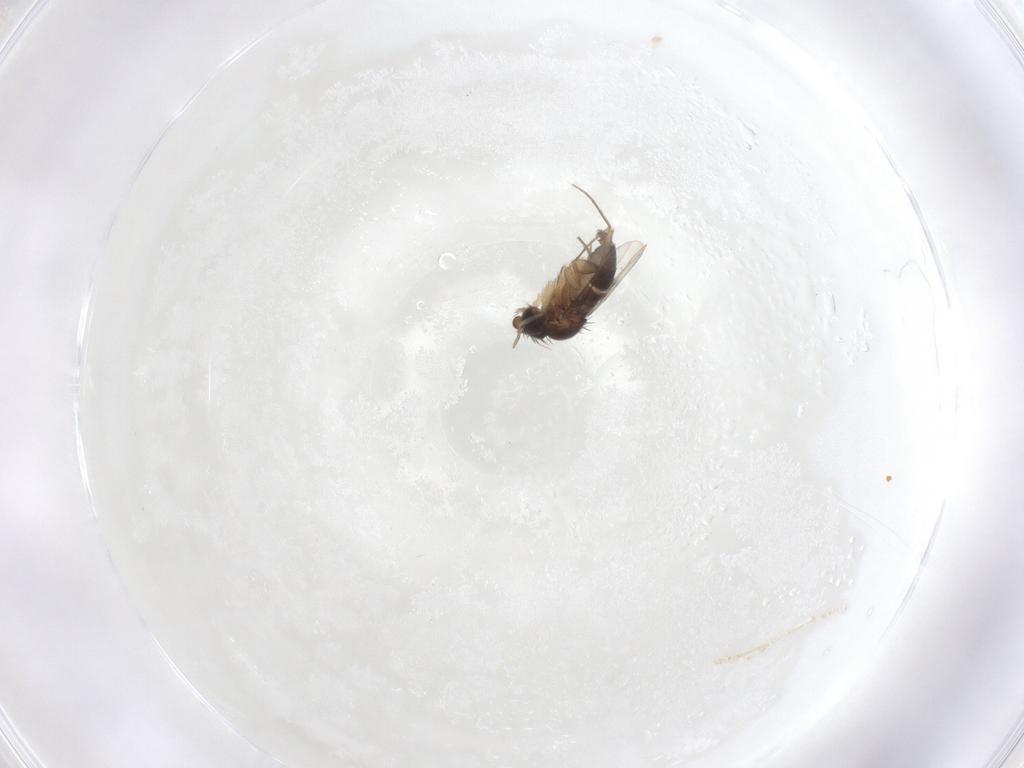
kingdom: Animalia
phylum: Arthropoda
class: Insecta
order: Diptera
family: Phoridae
